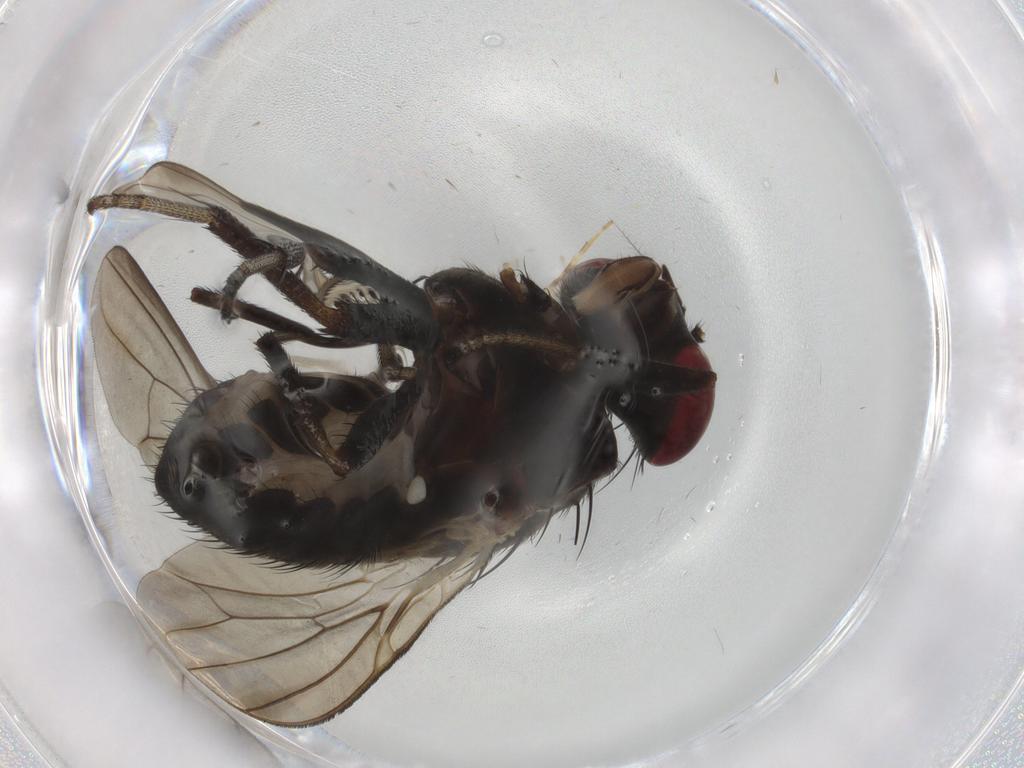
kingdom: Animalia
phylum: Arthropoda
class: Insecta
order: Diptera
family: Lauxaniidae
